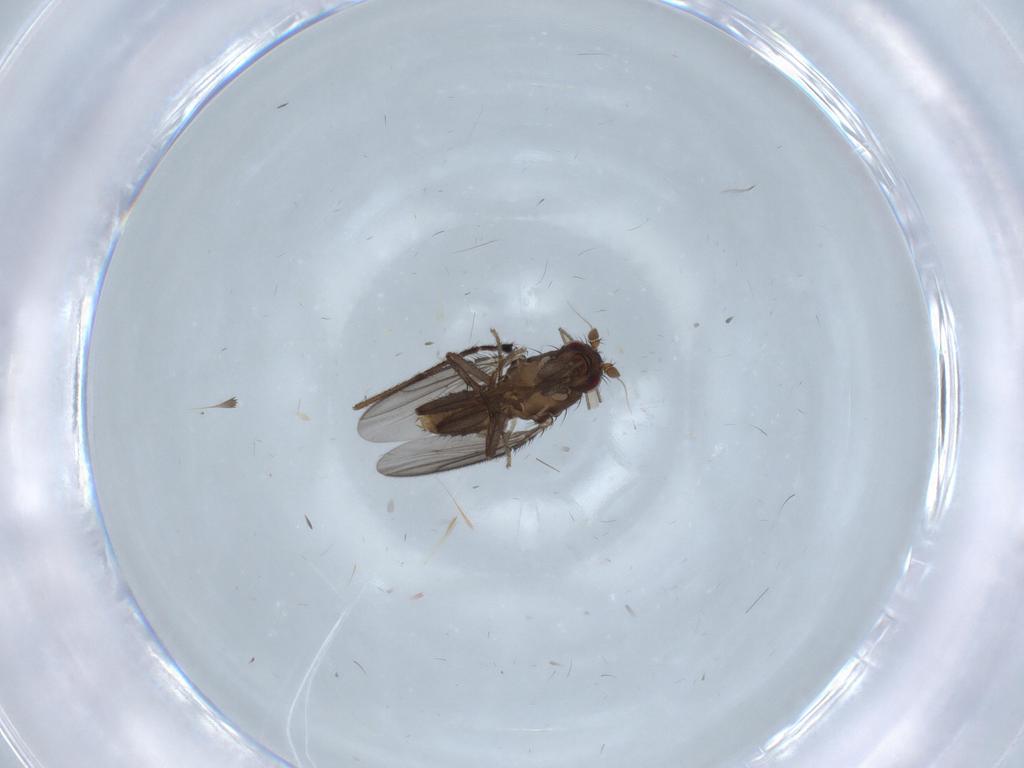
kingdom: Animalia
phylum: Arthropoda
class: Insecta
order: Diptera
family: Sphaeroceridae
